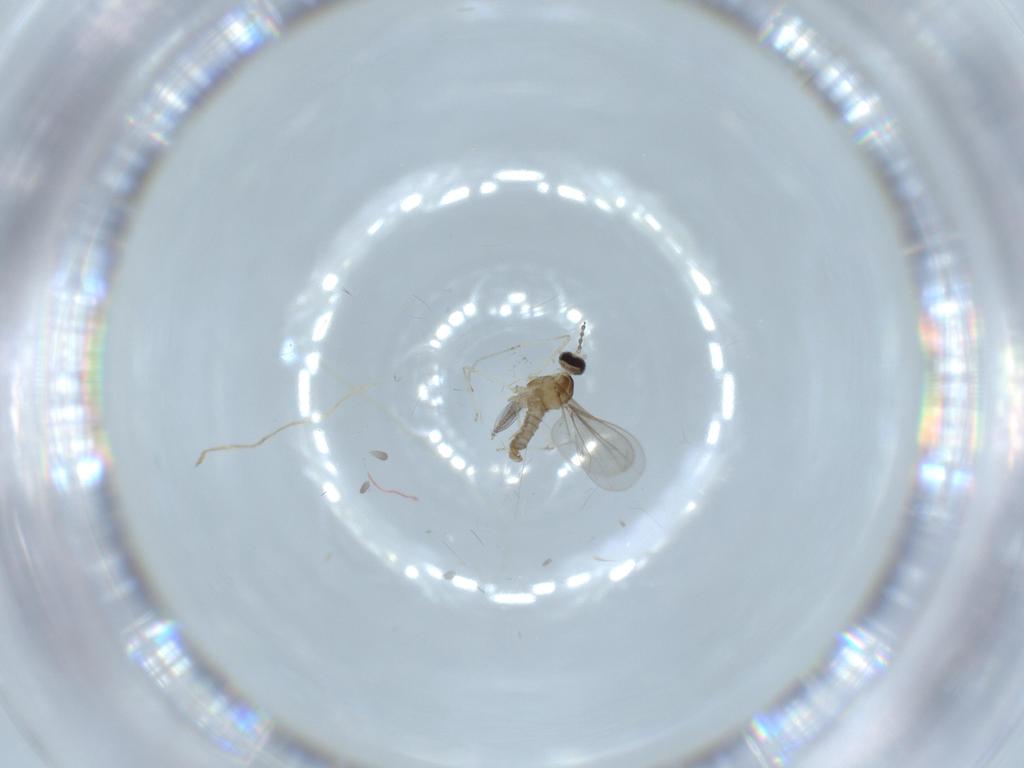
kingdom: Animalia
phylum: Arthropoda
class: Insecta
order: Diptera
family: Cecidomyiidae
